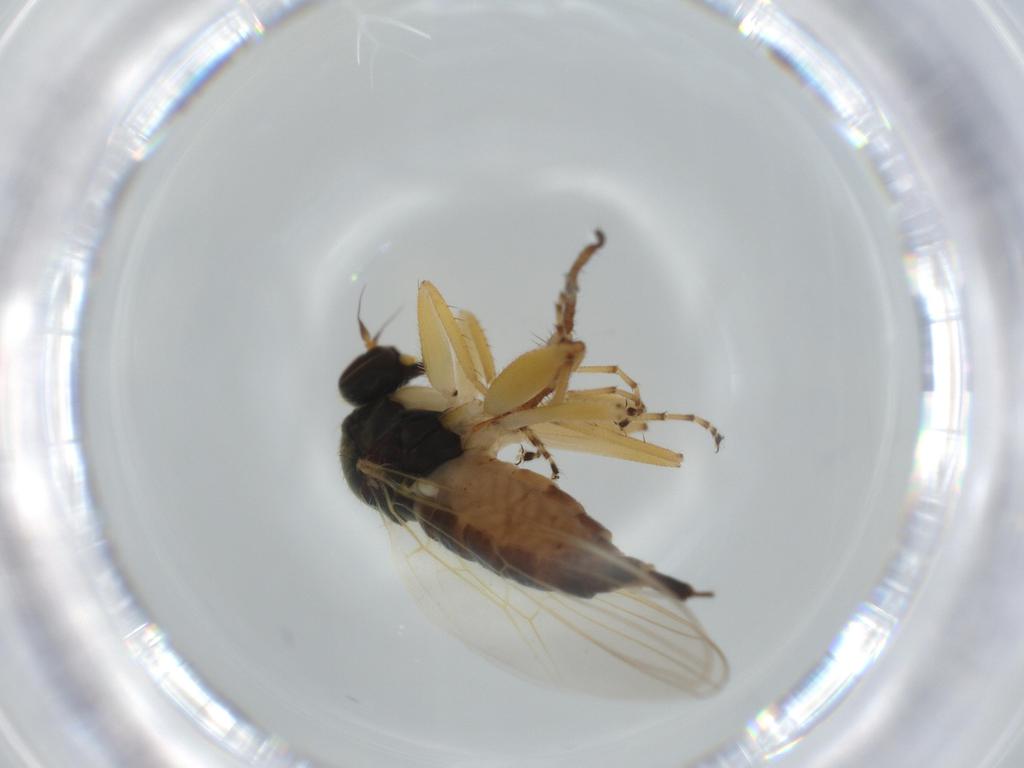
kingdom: Animalia
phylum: Arthropoda
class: Insecta
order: Diptera
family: Hybotidae
